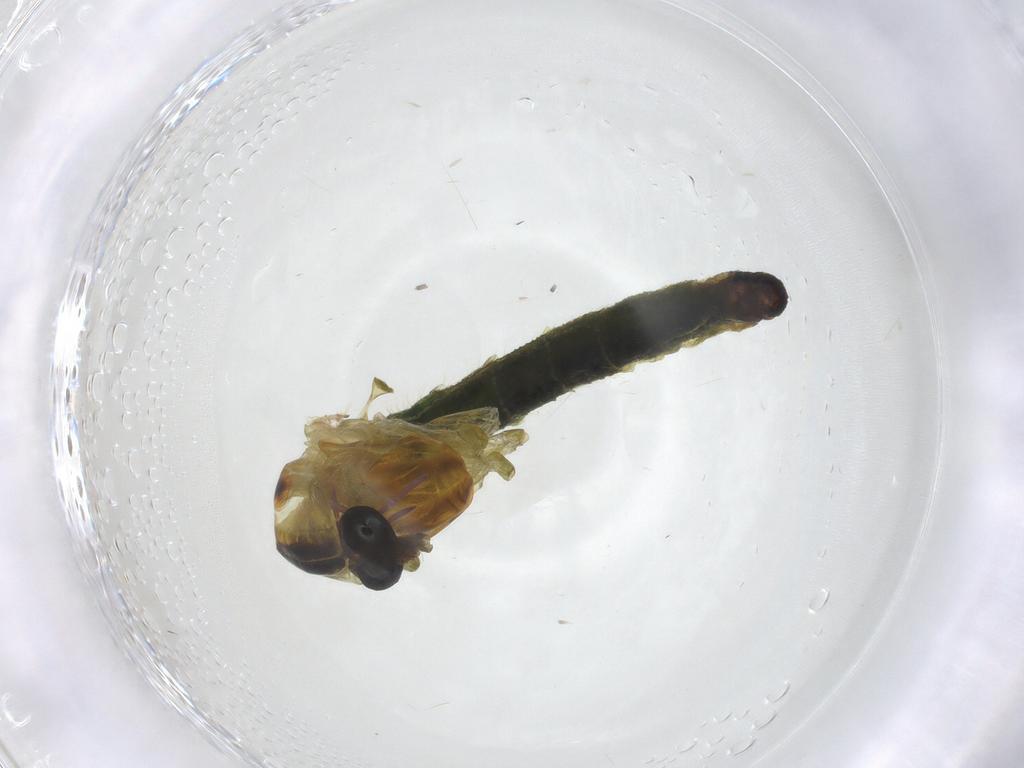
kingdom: Animalia
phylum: Arthropoda
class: Insecta
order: Diptera
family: Chironomidae
